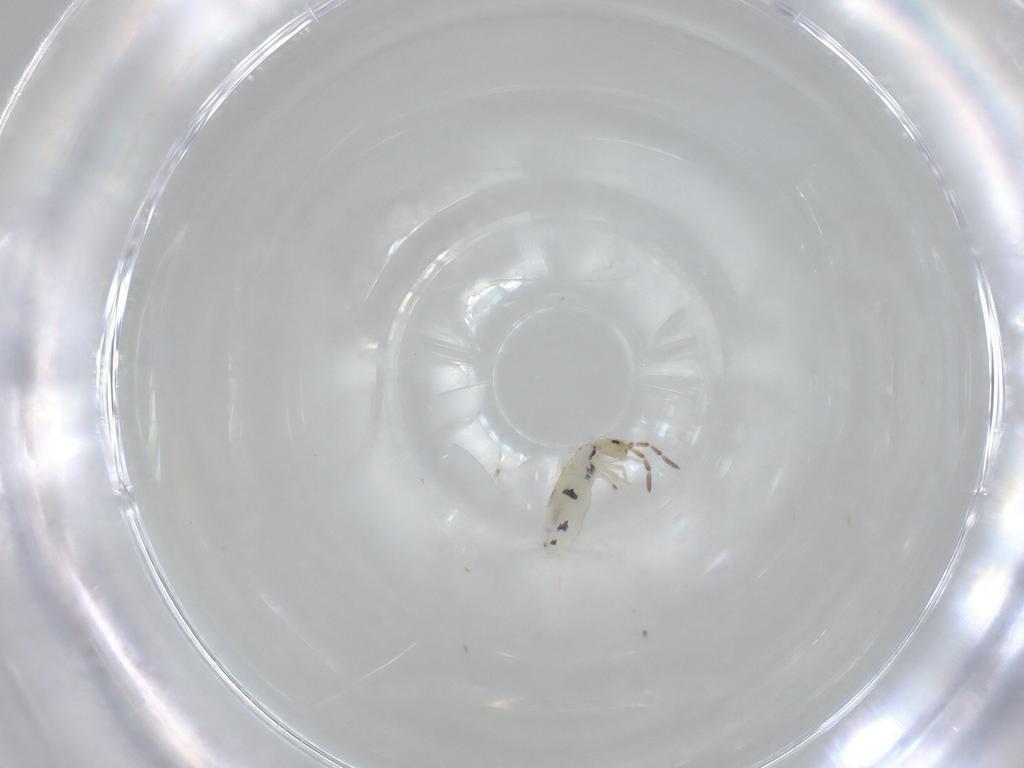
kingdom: Animalia
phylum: Arthropoda
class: Collembola
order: Entomobryomorpha
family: Entomobryidae
